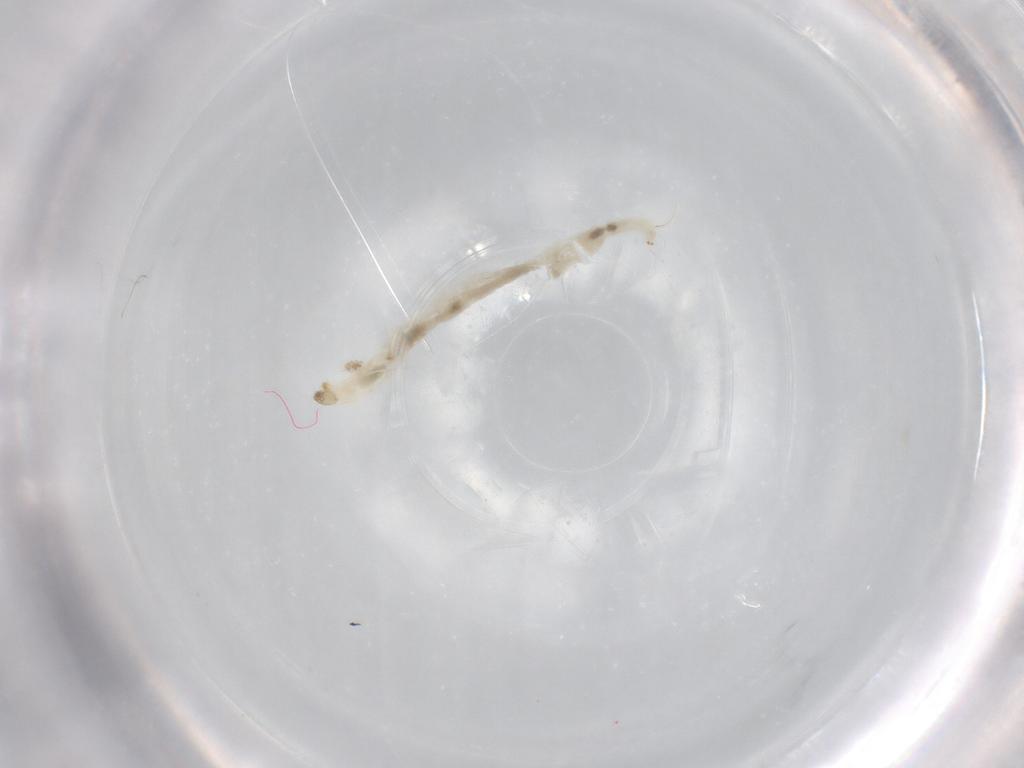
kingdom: Animalia
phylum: Arthropoda
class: Insecta
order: Diptera
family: Chironomidae
